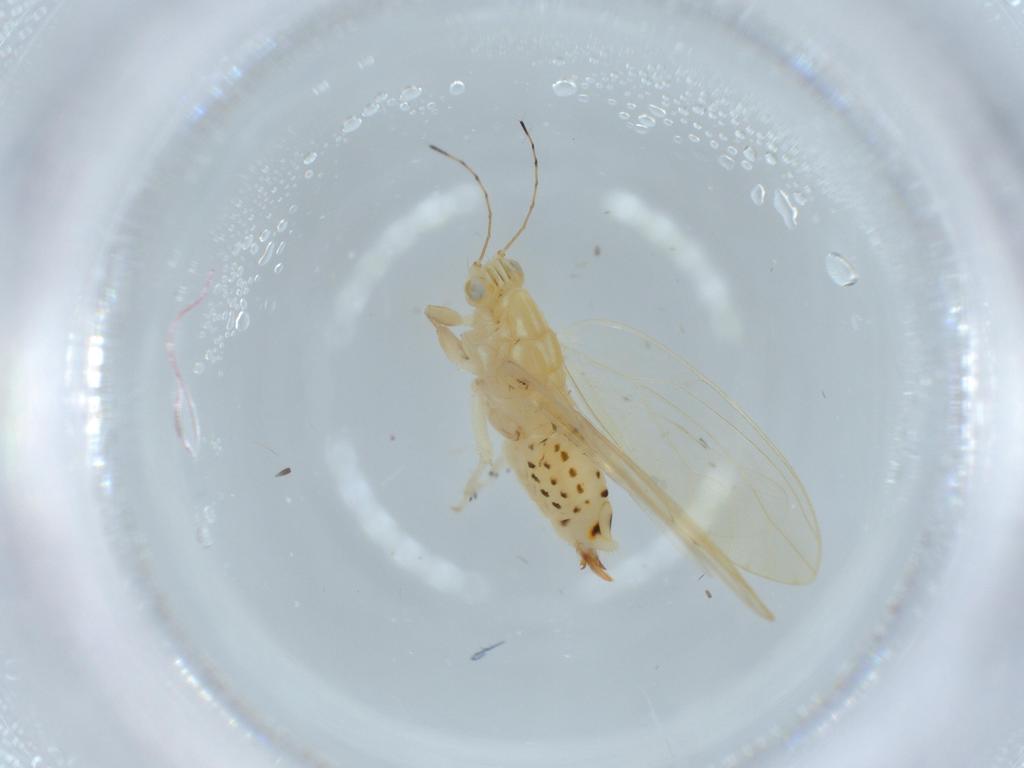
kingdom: Animalia
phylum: Arthropoda
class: Insecta
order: Hemiptera
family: Triozidae
